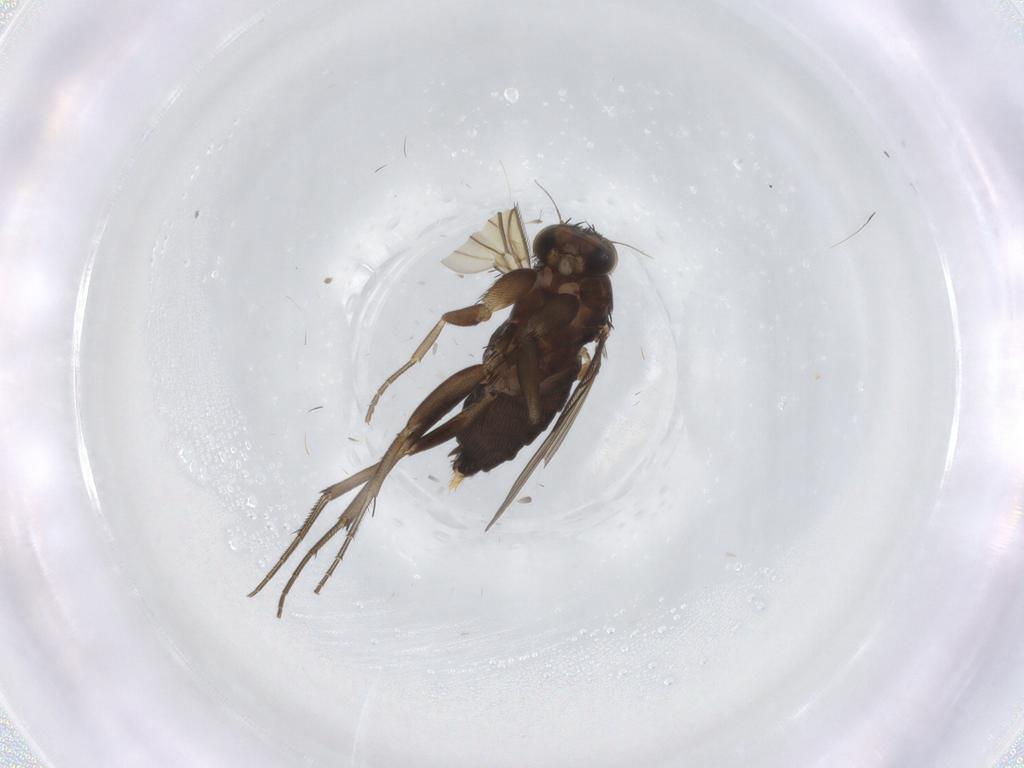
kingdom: Animalia
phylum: Arthropoda
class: Insecta
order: Diptera
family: Phoridae
